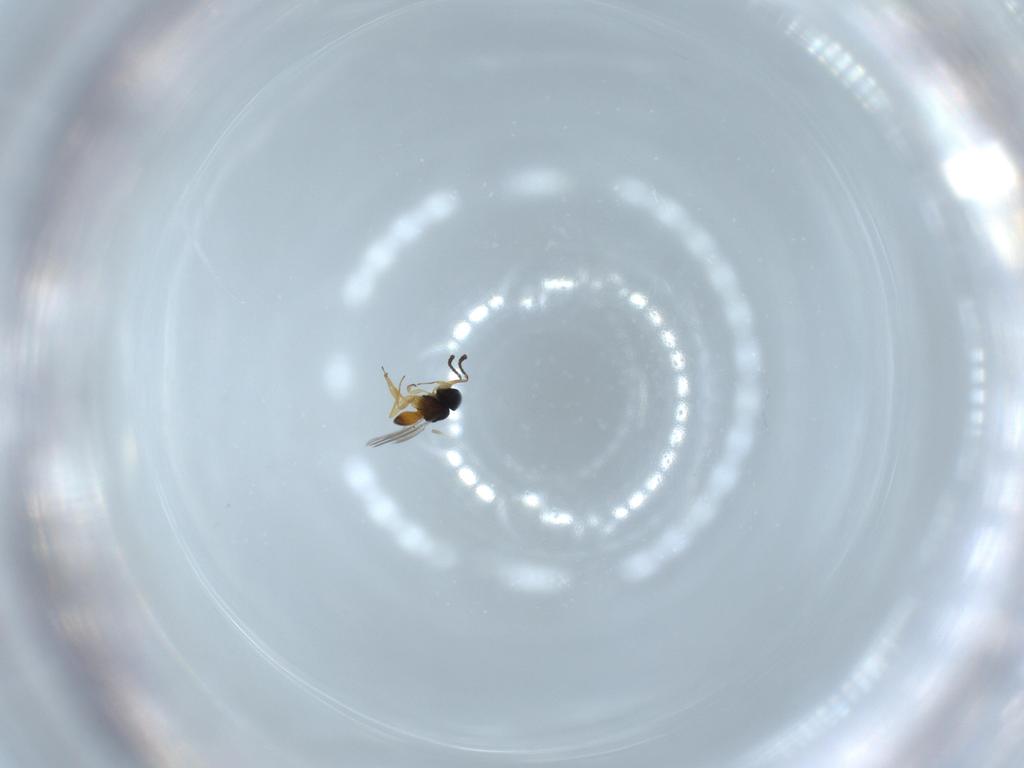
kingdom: Animalia
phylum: Arthropoda
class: Insecta
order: Hymenoptera
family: Scelionidae
